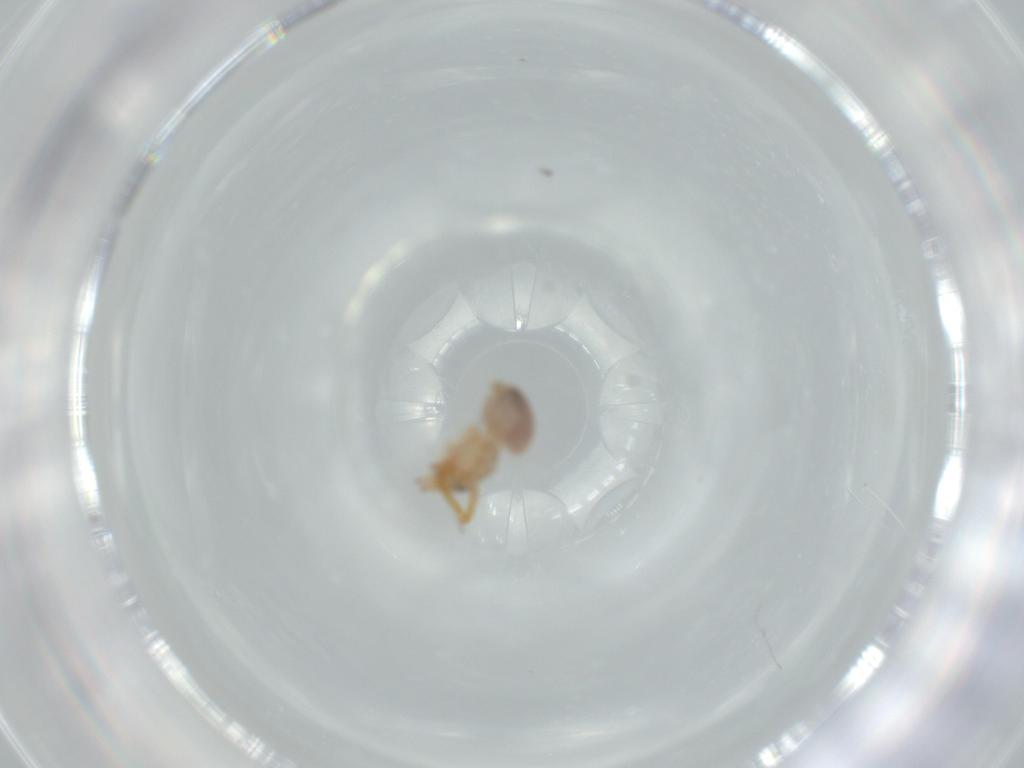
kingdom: Animalia
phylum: Arthropoda
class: Arachnida
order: Araneae
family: Oonopidae
